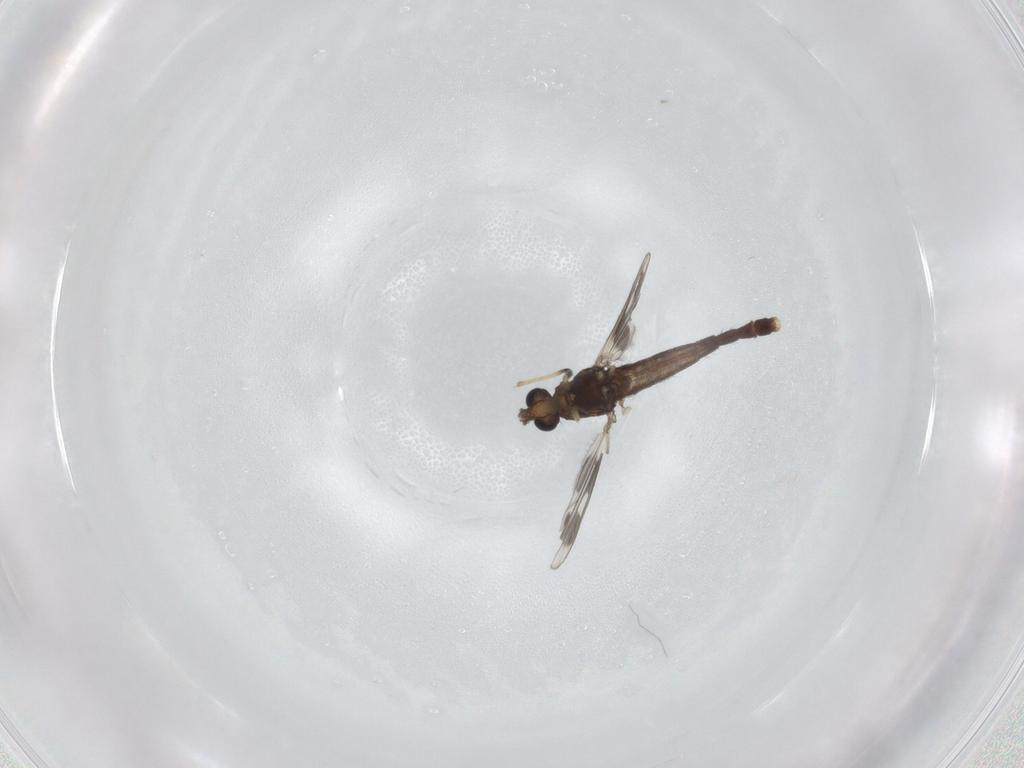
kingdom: Animalia
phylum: Arthropoda
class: Insecta
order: Diptera
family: Chironomidae
